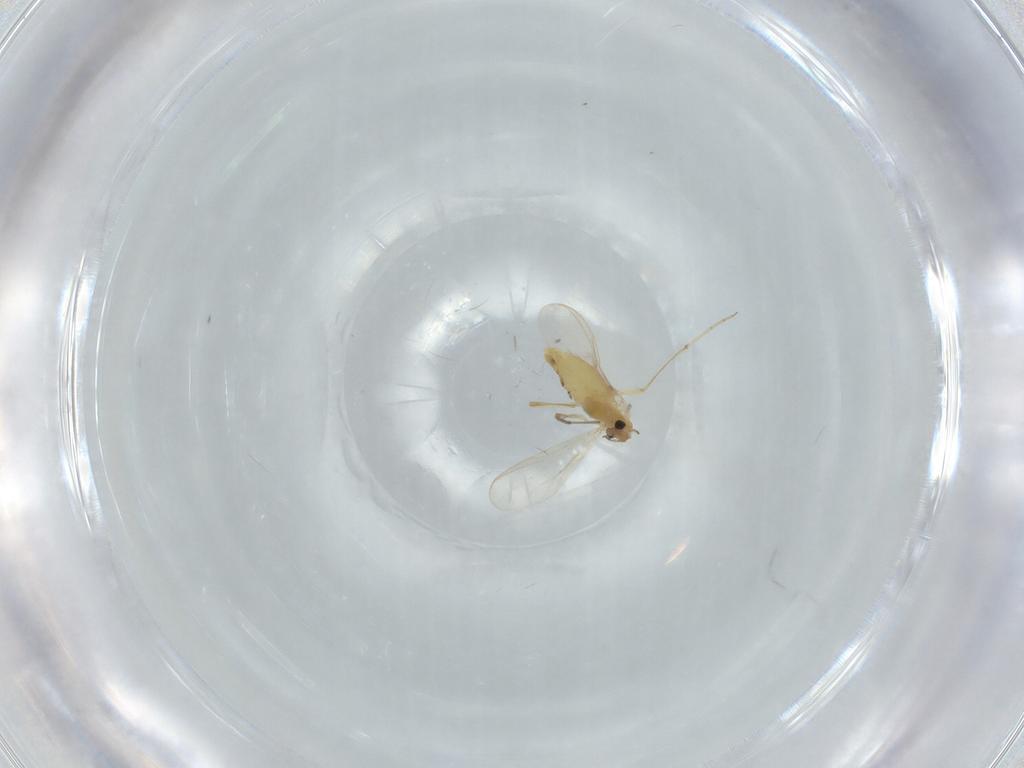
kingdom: Animalia
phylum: Arthropoda
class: Insecta
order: Diptera
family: Chironomidae
